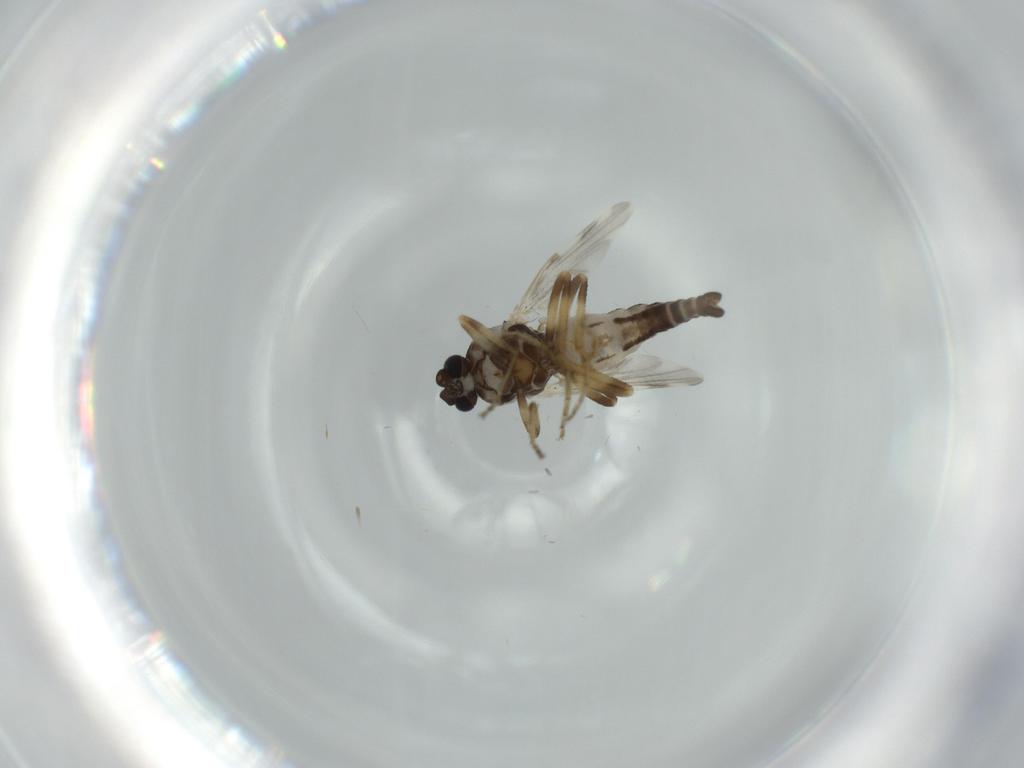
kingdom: Animalia
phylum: Arthropoda
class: Insecta
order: Diptera
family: Ceratopogonidae
